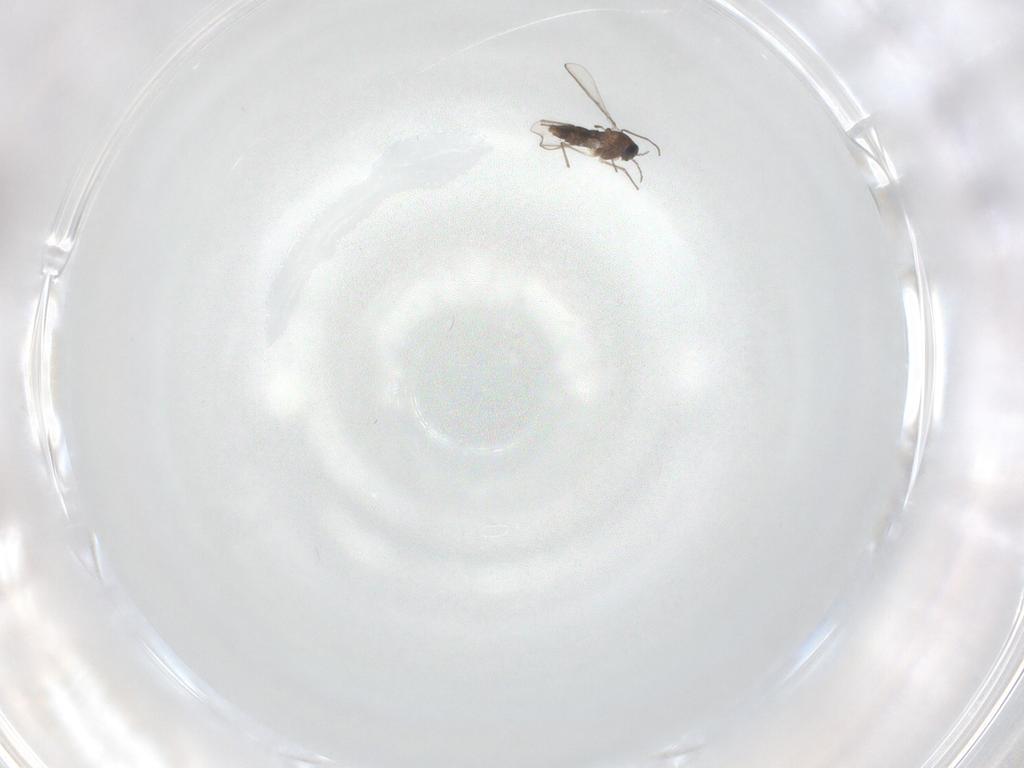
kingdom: Animalia
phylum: Arthropoda
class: Insecta
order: Diptera
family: Chironomidae
